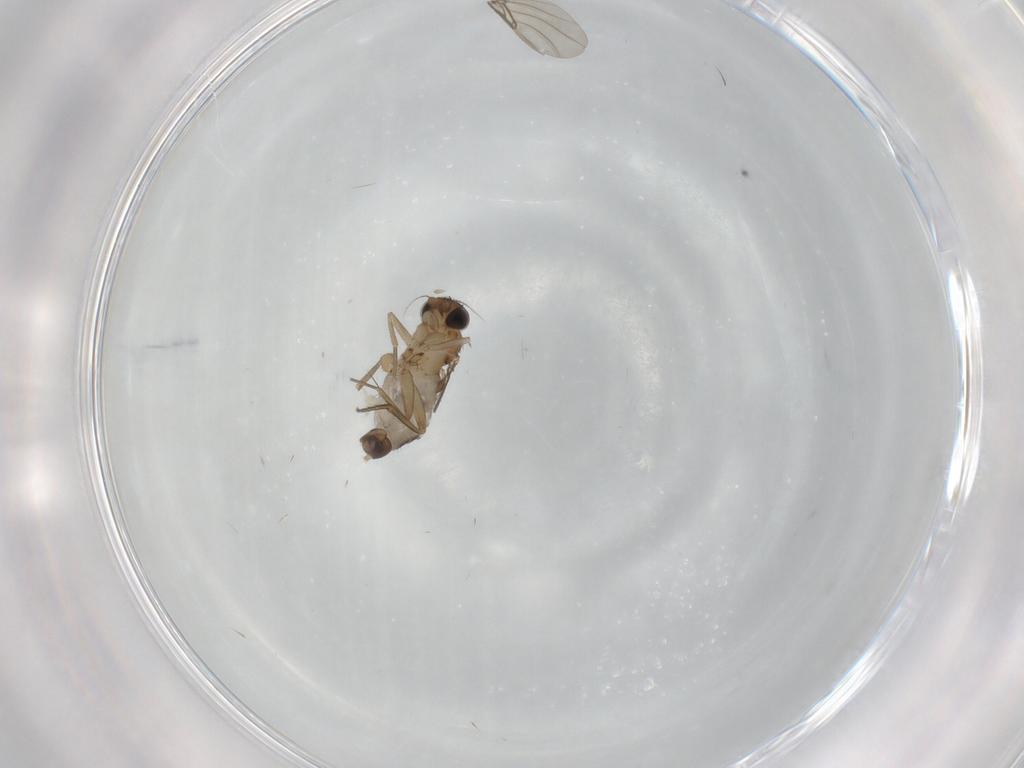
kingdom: Animalia
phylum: Arthropoda
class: Insecta
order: Diptera
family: Phoridae
